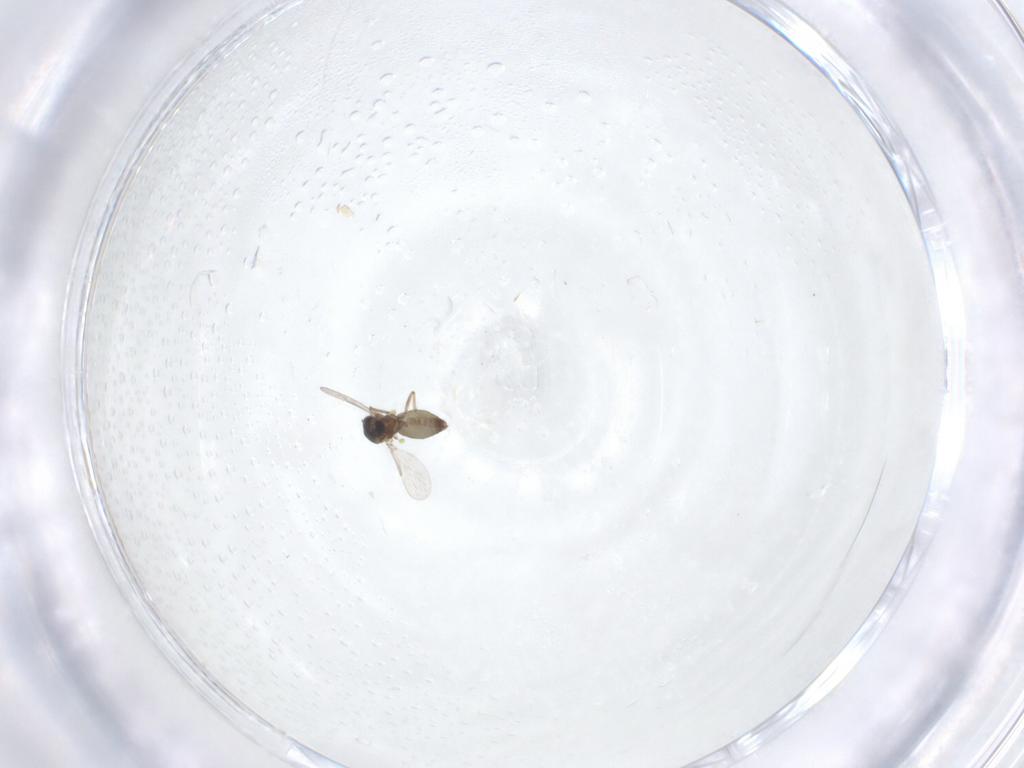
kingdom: Animalia
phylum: Arthropoda
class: Insecta
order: Diptera
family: Ceratopogonidae
